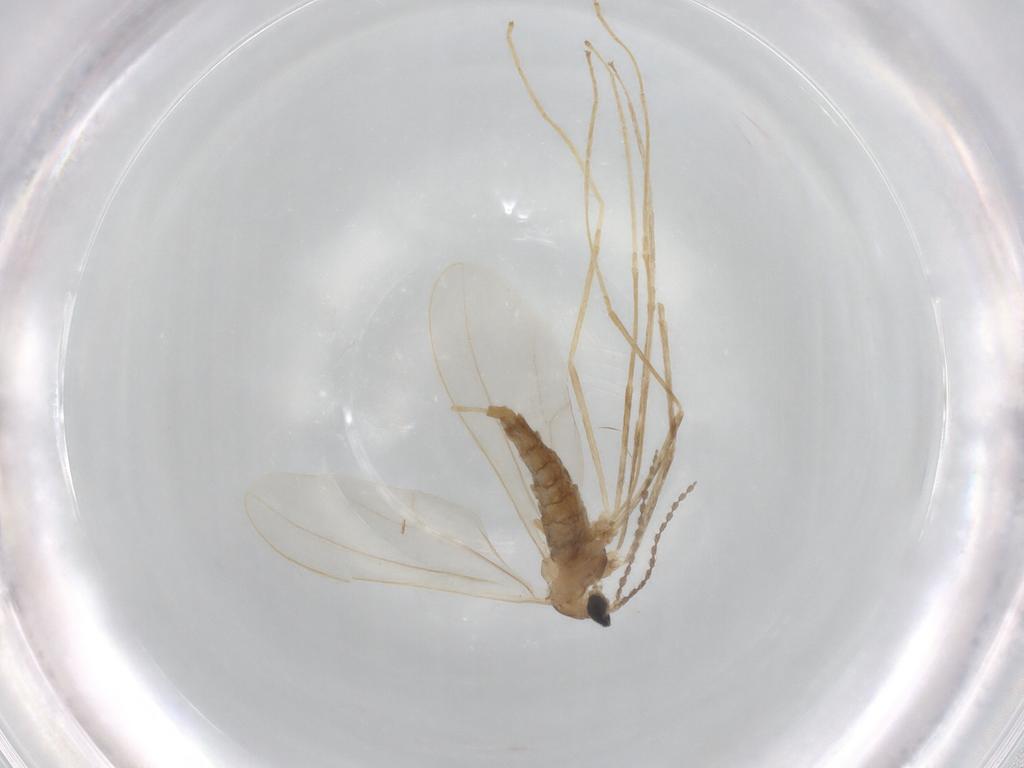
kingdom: Animalia
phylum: Arthropoda
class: Insecta
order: Diptera
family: Cecidomyiidae
